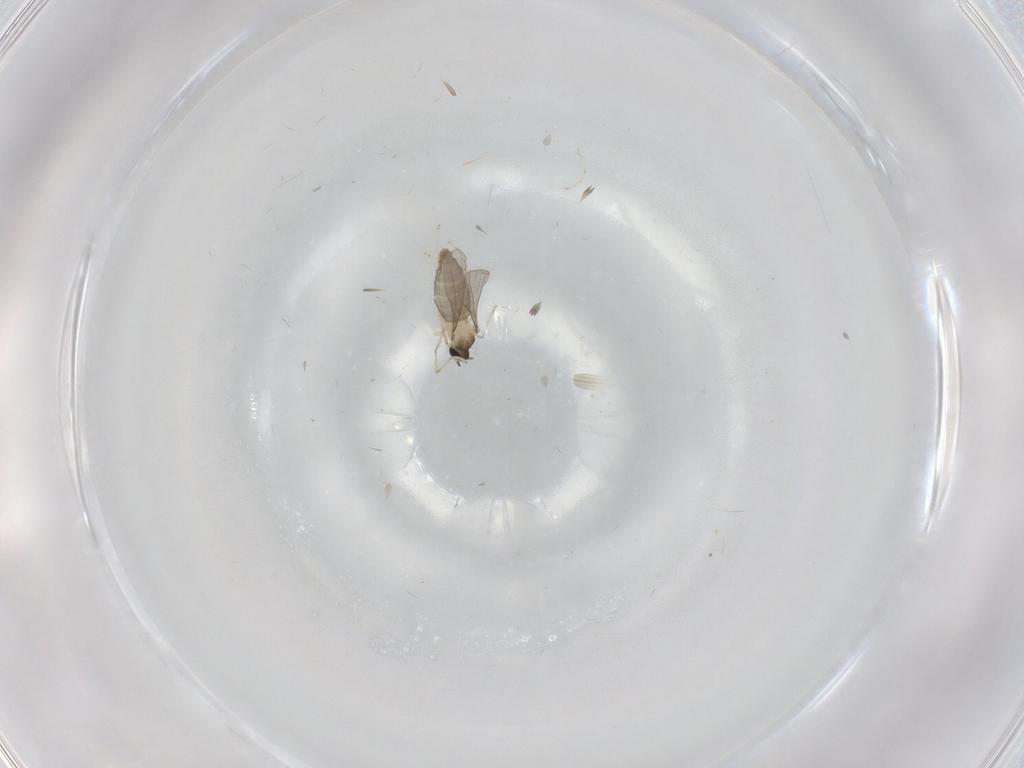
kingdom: Animalia
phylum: Arthropoda
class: Insecta
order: Diptera
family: Cecidomyiidae
